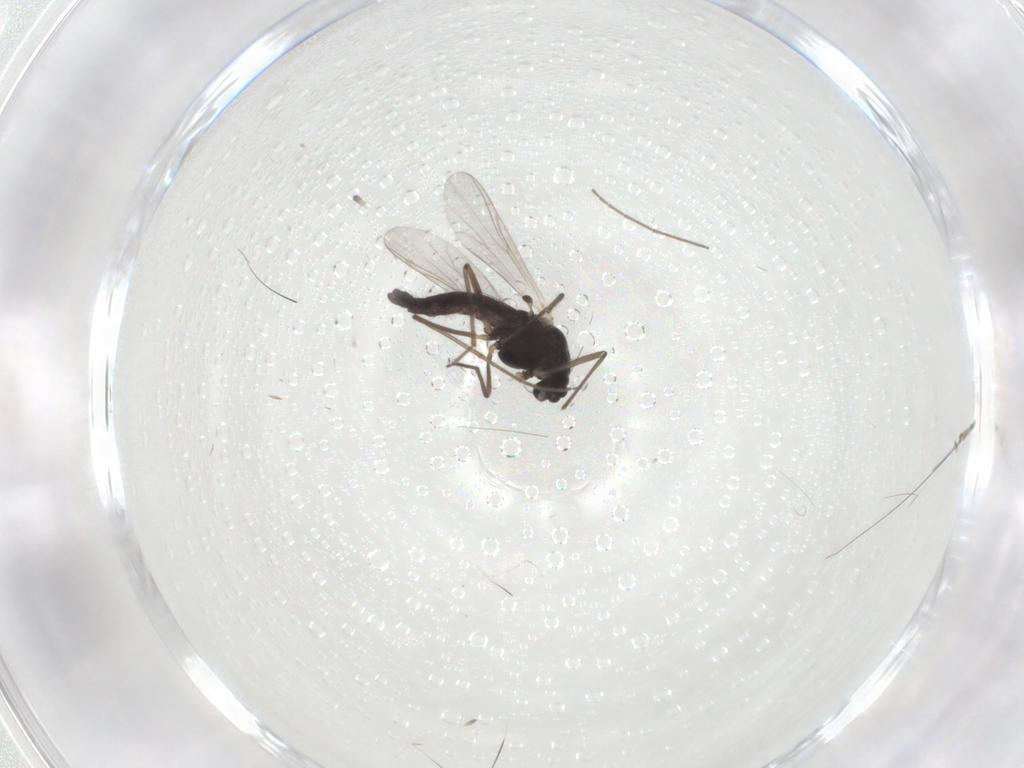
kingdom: Animalia
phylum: Arthropoda
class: Insecta
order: Diptera
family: Chironomidae
